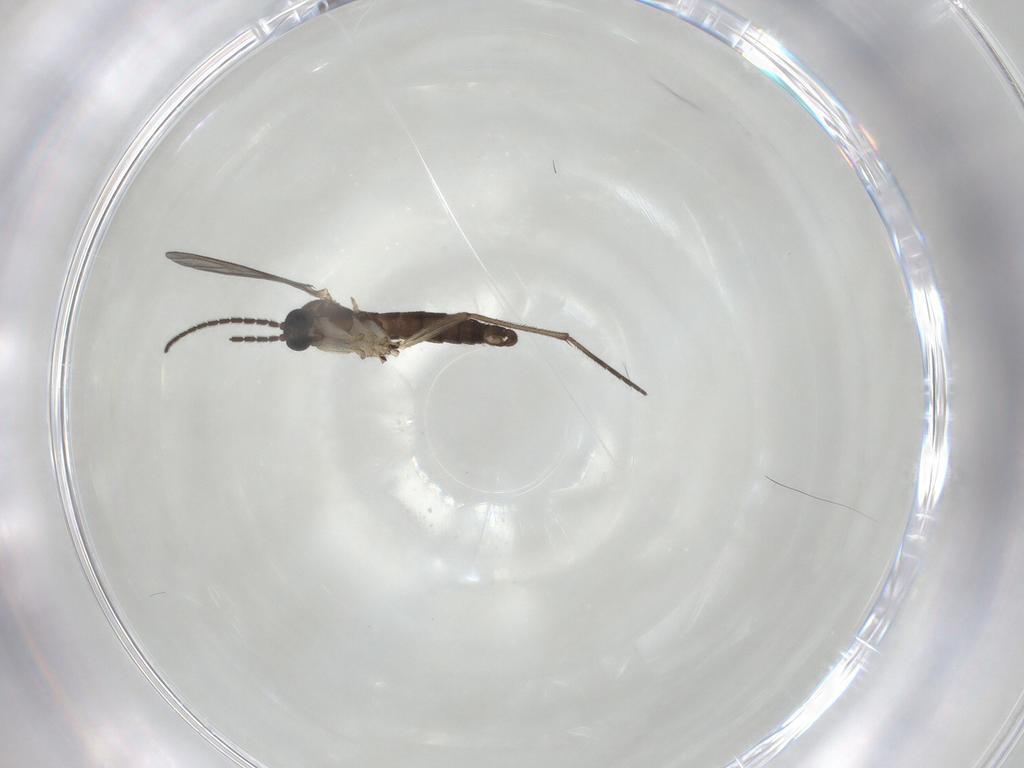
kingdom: Animalia
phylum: Arthropoda
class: Insecta
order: Diptera
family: Sciaridae
